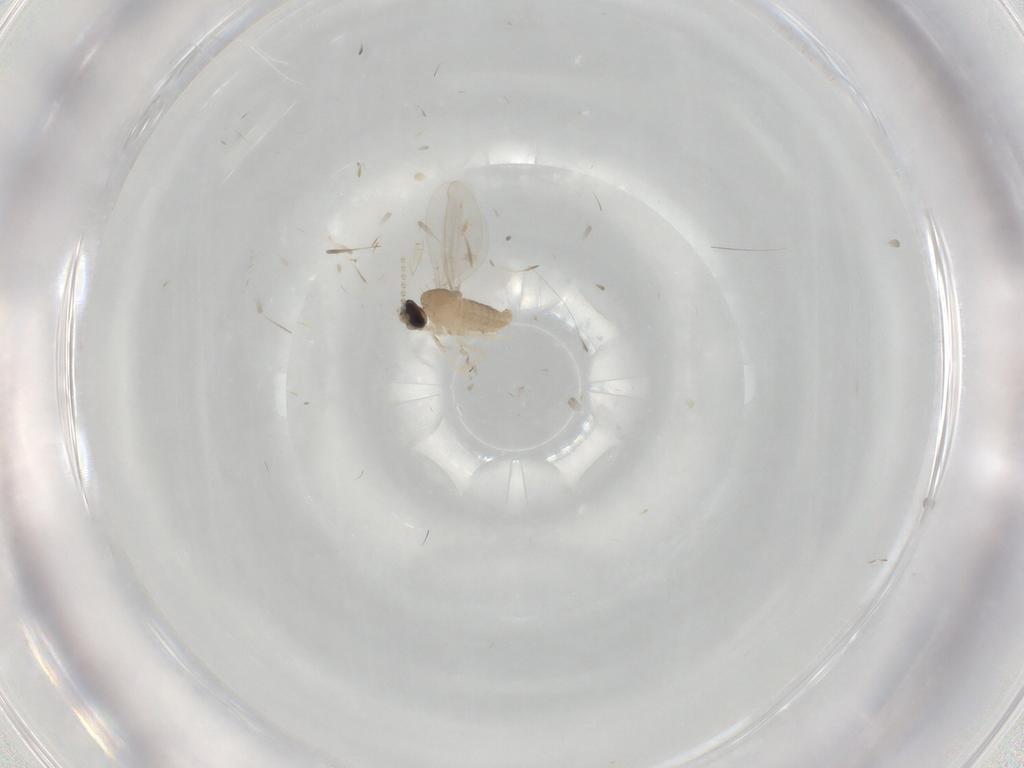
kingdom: Animalia
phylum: Arthropoda
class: Insecta
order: Diptera
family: Cecidomyiidae
